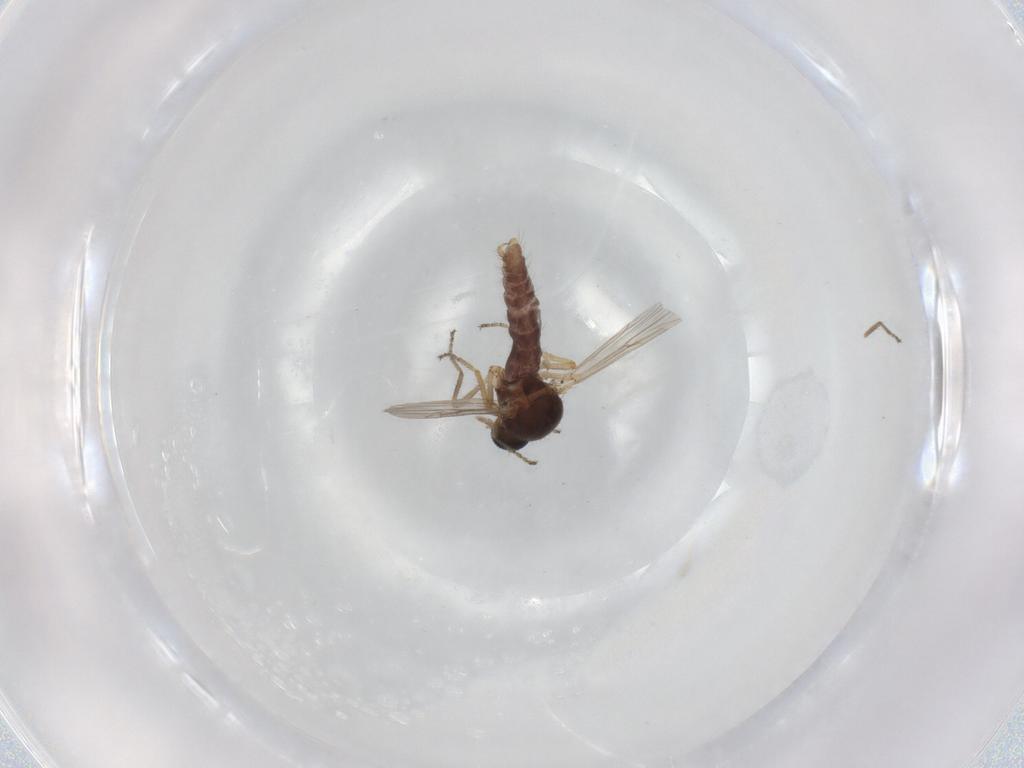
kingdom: Animalia
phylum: Arthropoda
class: Insecta
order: Diptera
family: Ceratopogonidae
